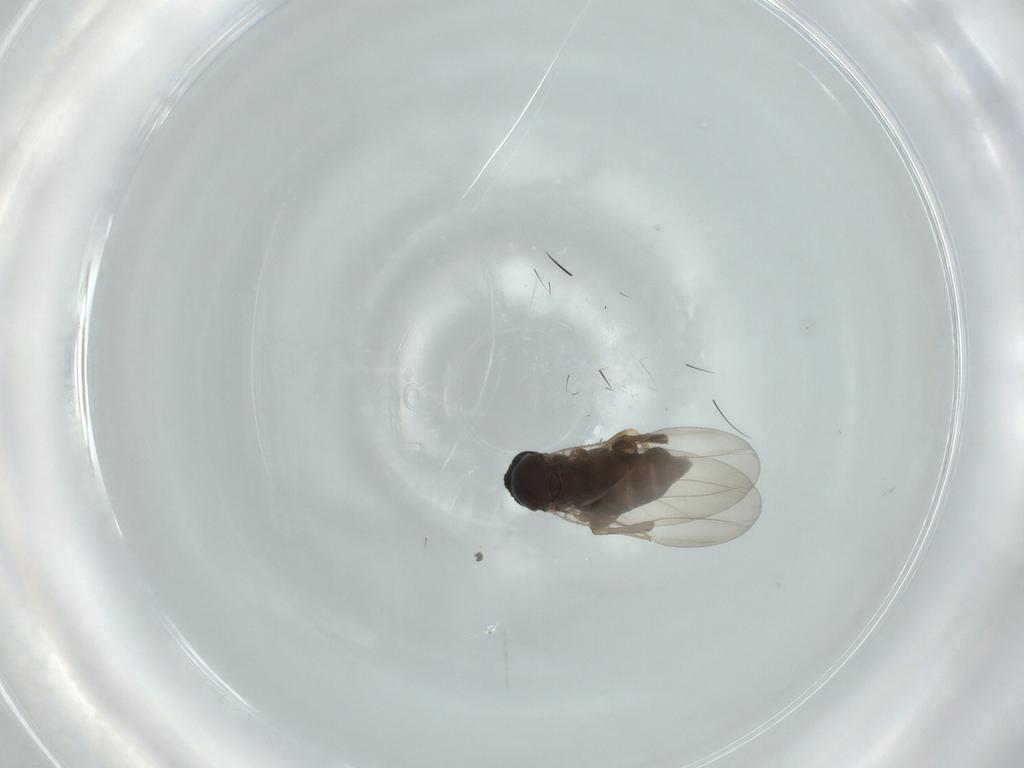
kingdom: Animalia
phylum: Arthropoda
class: Insecta
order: Diptera
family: Phoridae
